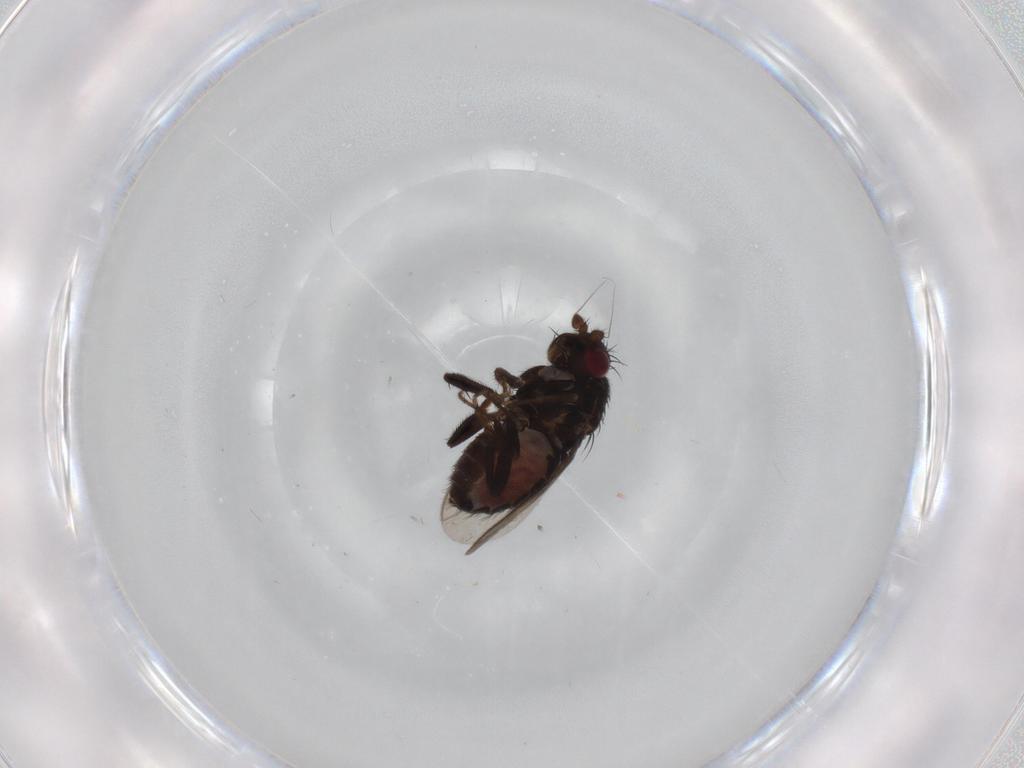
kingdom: Animalia
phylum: Arthropoda
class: Insecta
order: Diptera
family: Sphaeroceridae
